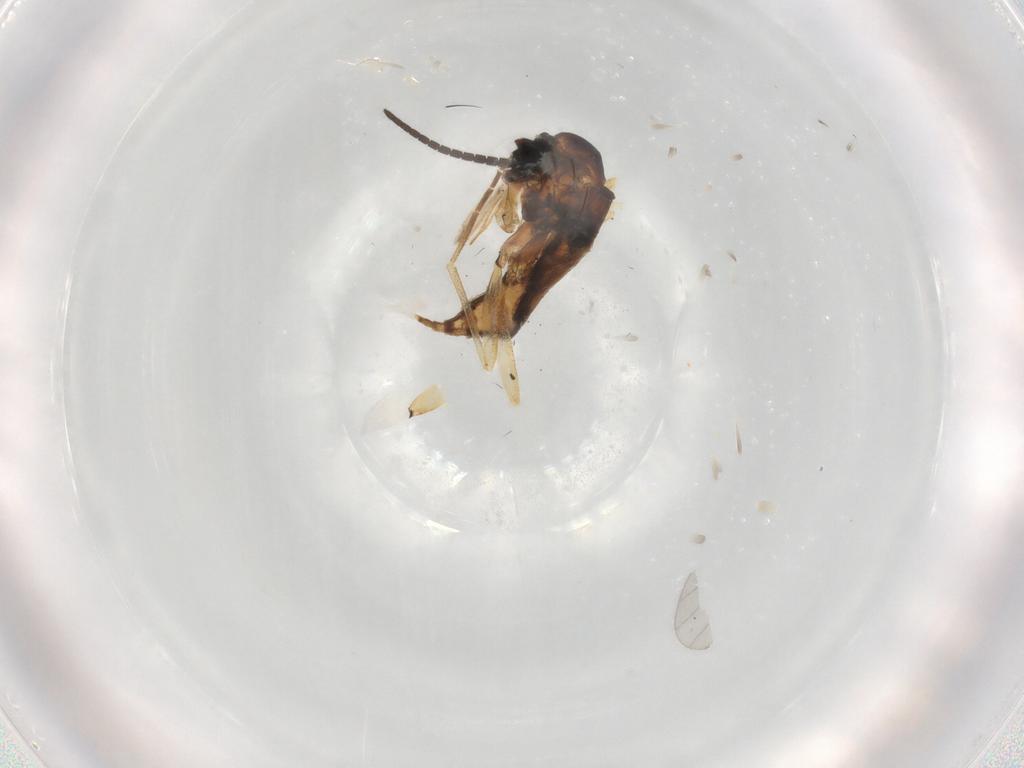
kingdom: Animalia
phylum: Arthropoda
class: Insecta
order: Diptera
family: Sciaridae
